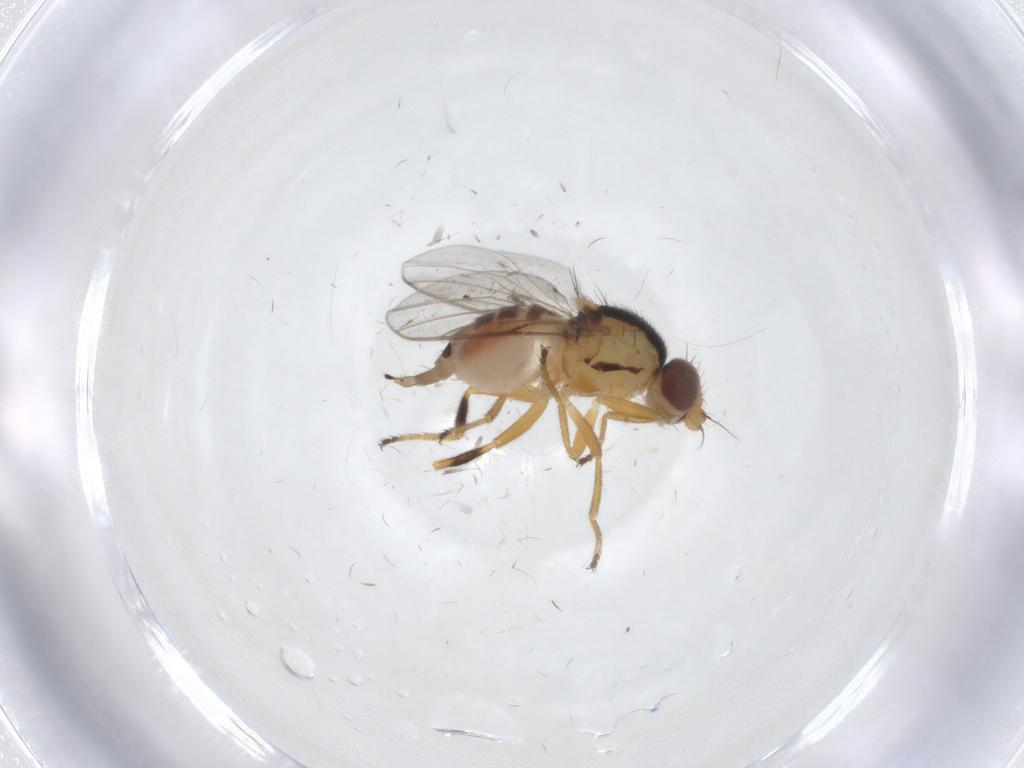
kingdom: Animalia
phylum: Arthropoda
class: Insecta
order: Diptera
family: Chloropidae
